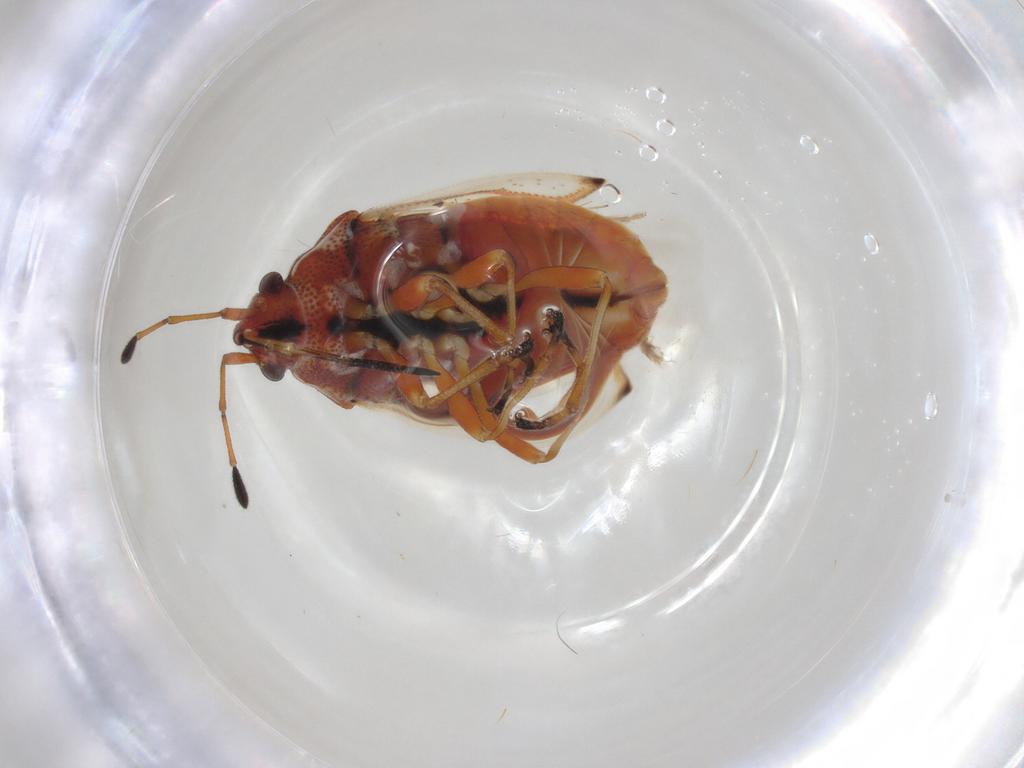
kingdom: Animalia
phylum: Arthropoda
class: Insecta
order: Hemiptera
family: Lygaeidae
